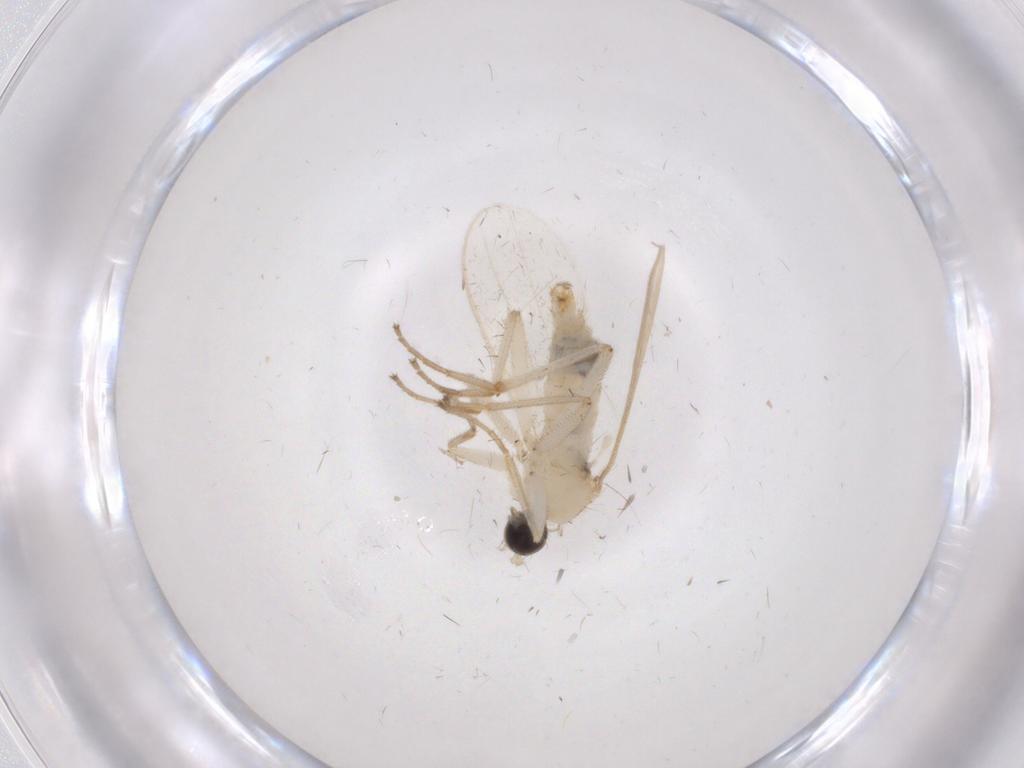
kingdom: Animalia
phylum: Arthropoda
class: Insecta
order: Diptera
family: Hybotidae
